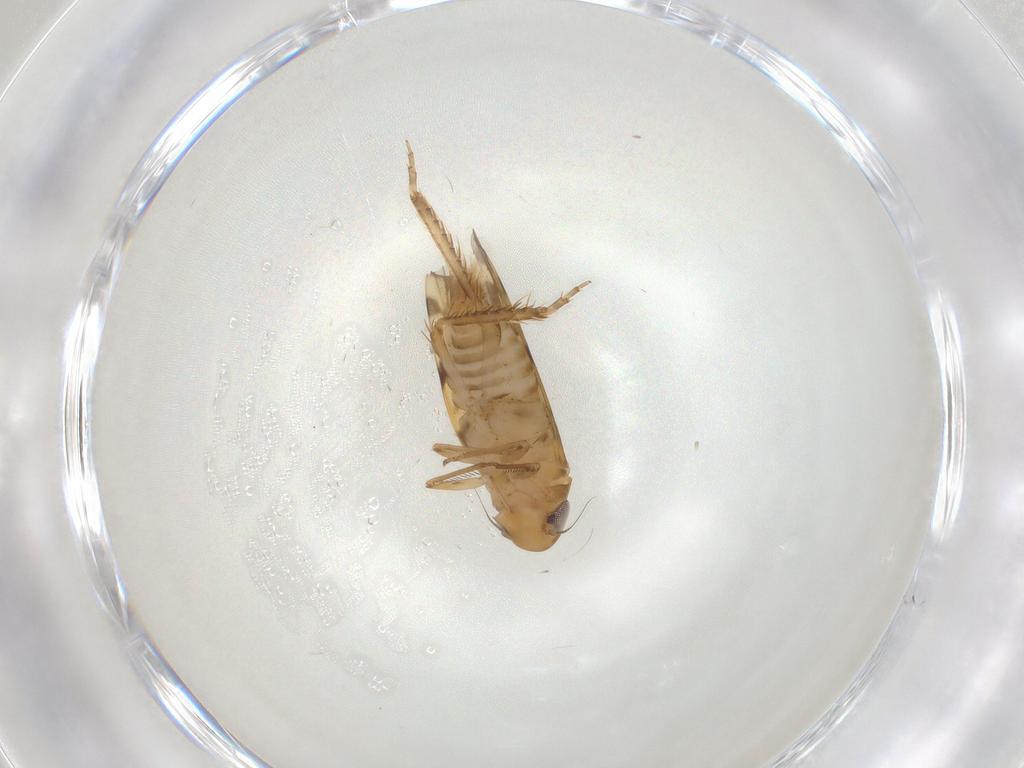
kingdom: Animalia
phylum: Arthropoda
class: Insecta
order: Hemiptera
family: Cicadellidae
